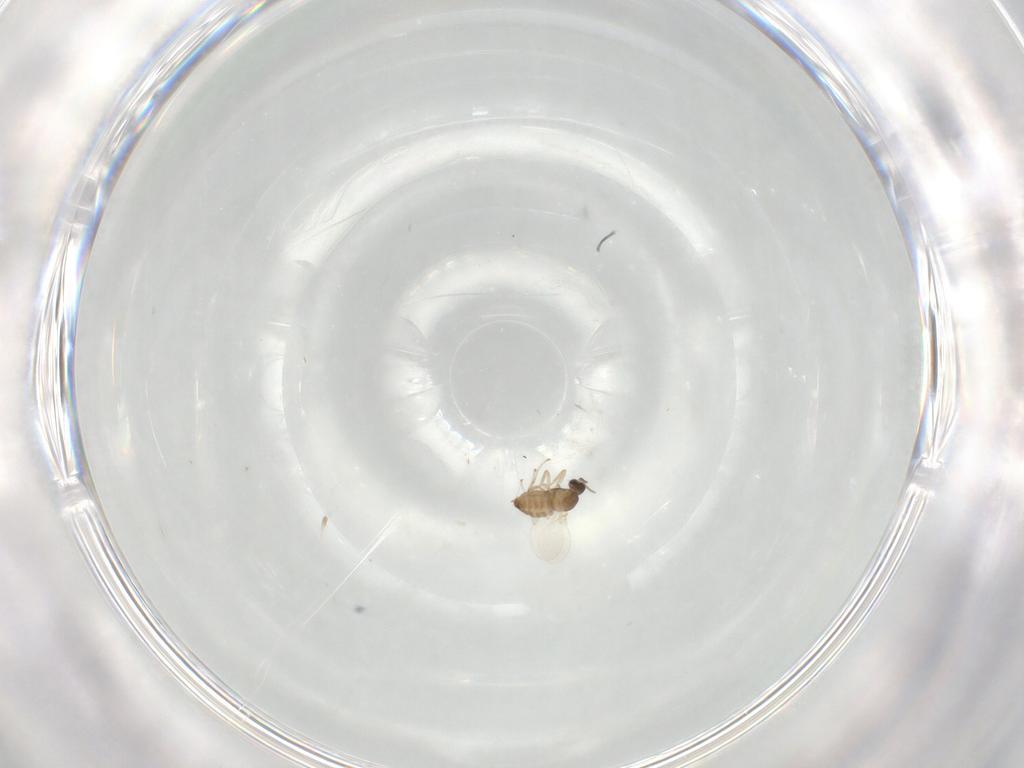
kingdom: Animalia
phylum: Arthropoda
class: Insecta
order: Diptera
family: Cecidomyiidae
